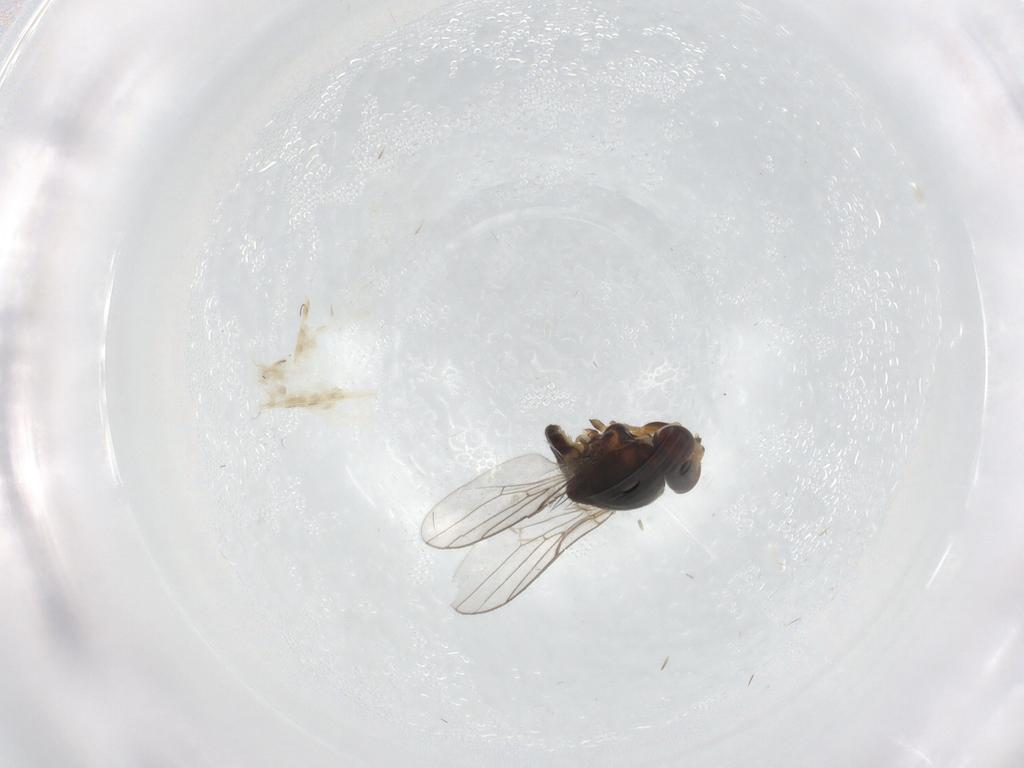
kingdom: Animalia
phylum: Arthropoda
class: Insecta
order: Diptera
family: Chloropidae
